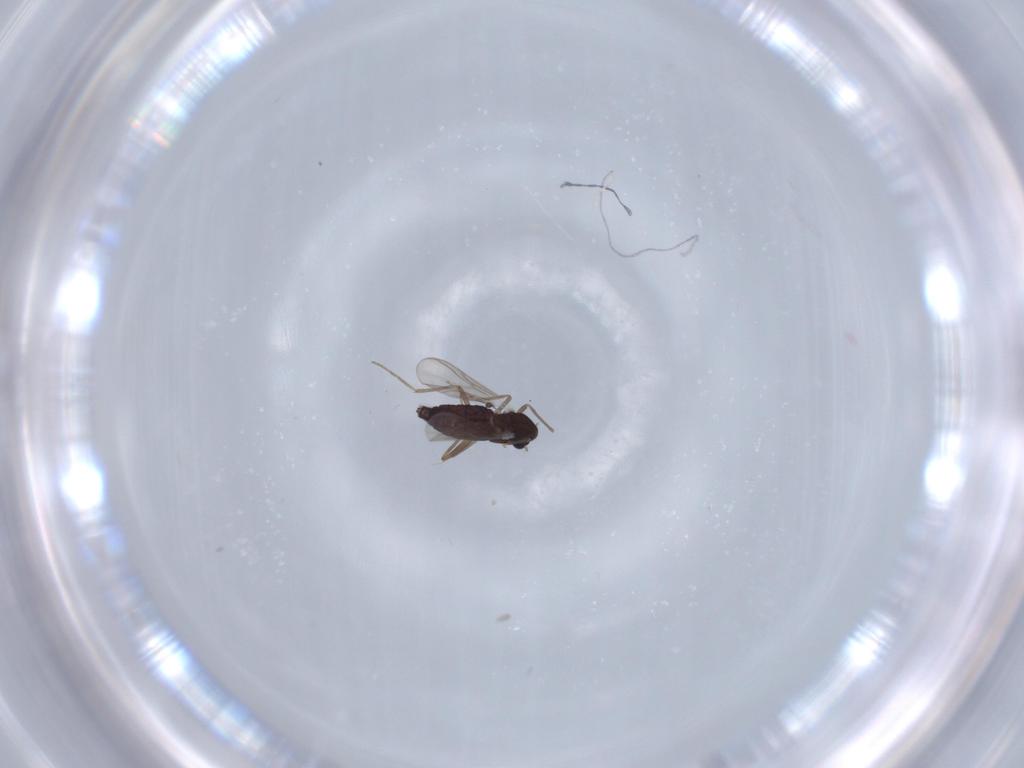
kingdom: Animalia
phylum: Arthropoda
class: Insecta
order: Diptera
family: Chironomidae
